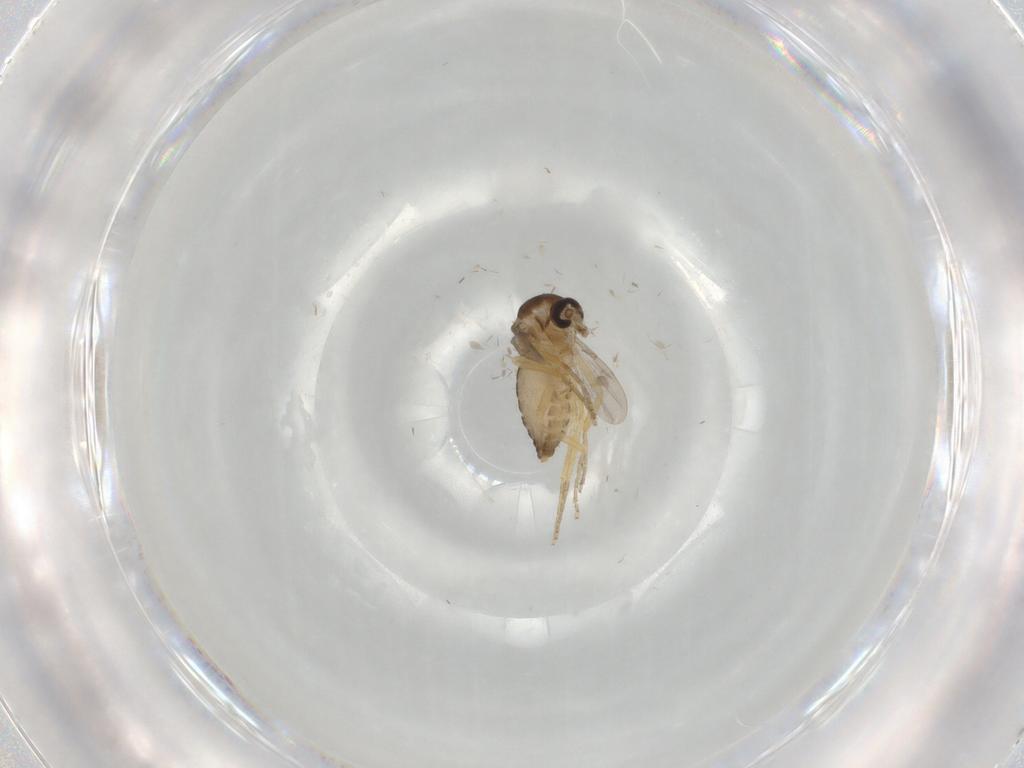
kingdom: Animalia
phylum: Arthropoda
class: Insecta
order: Diptera
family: Ceratopogonidae
